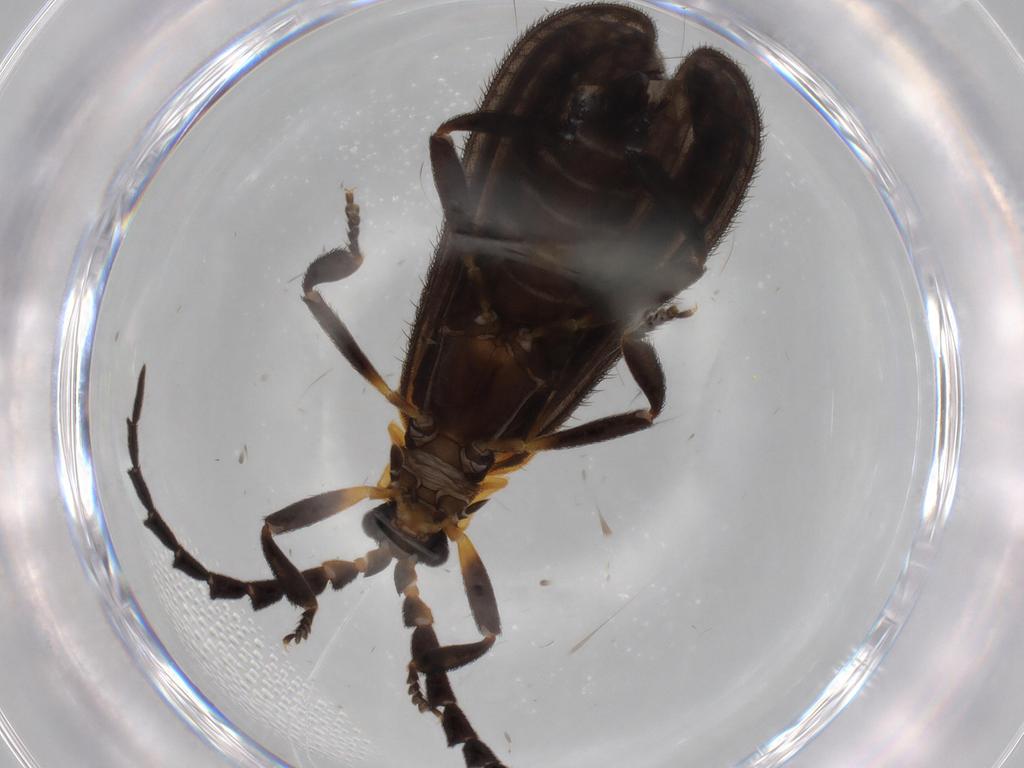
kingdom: Animalia
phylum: Arthropoda
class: Insecta
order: Coleoptera
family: Lycidae
